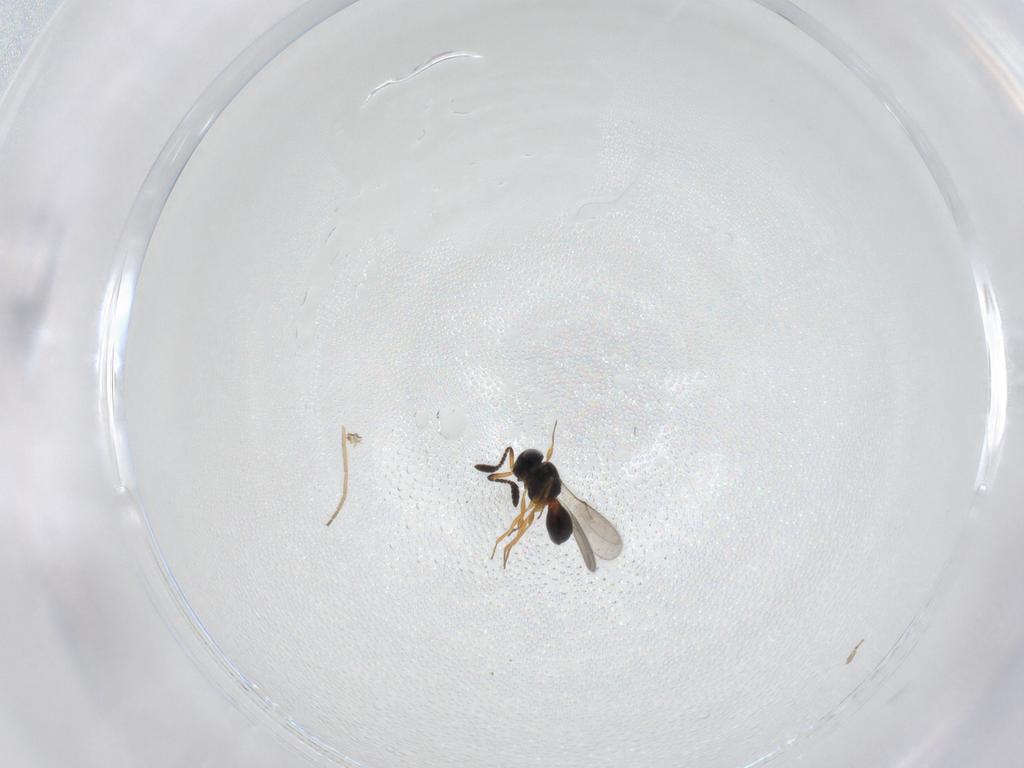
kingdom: Animalia
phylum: Arthropoda
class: Insecta
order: Hymenoptera
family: Scelionidae
